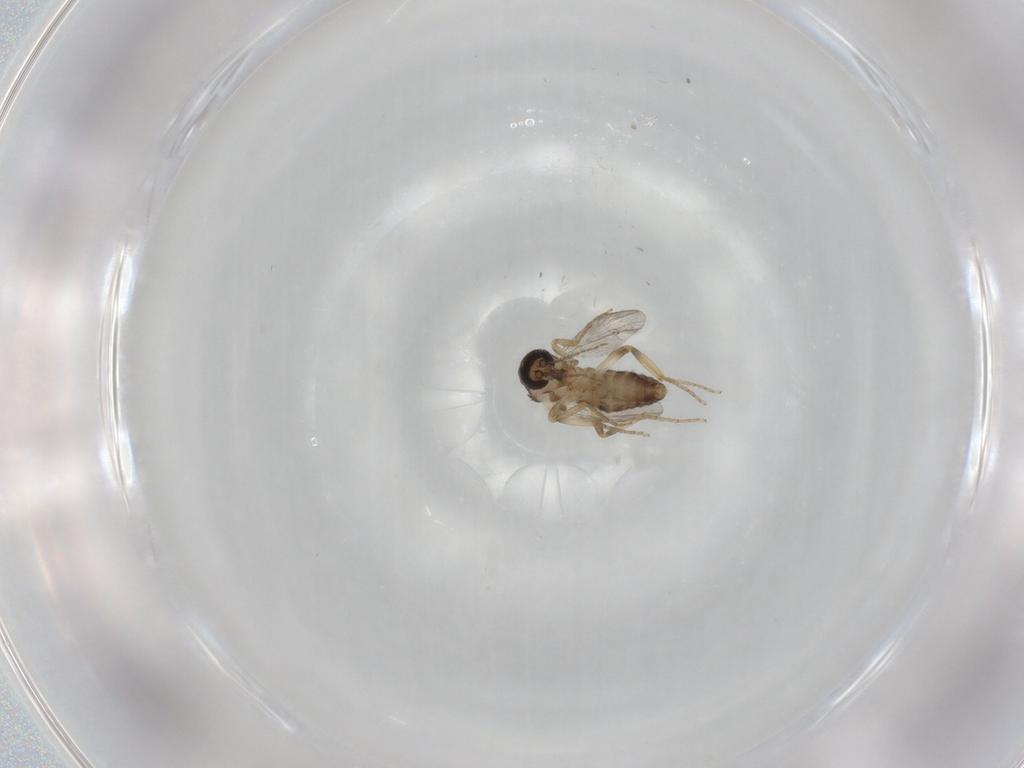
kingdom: Animalia
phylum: Arthropoda
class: Insecta
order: Diptera
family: Ceratopogonidae
